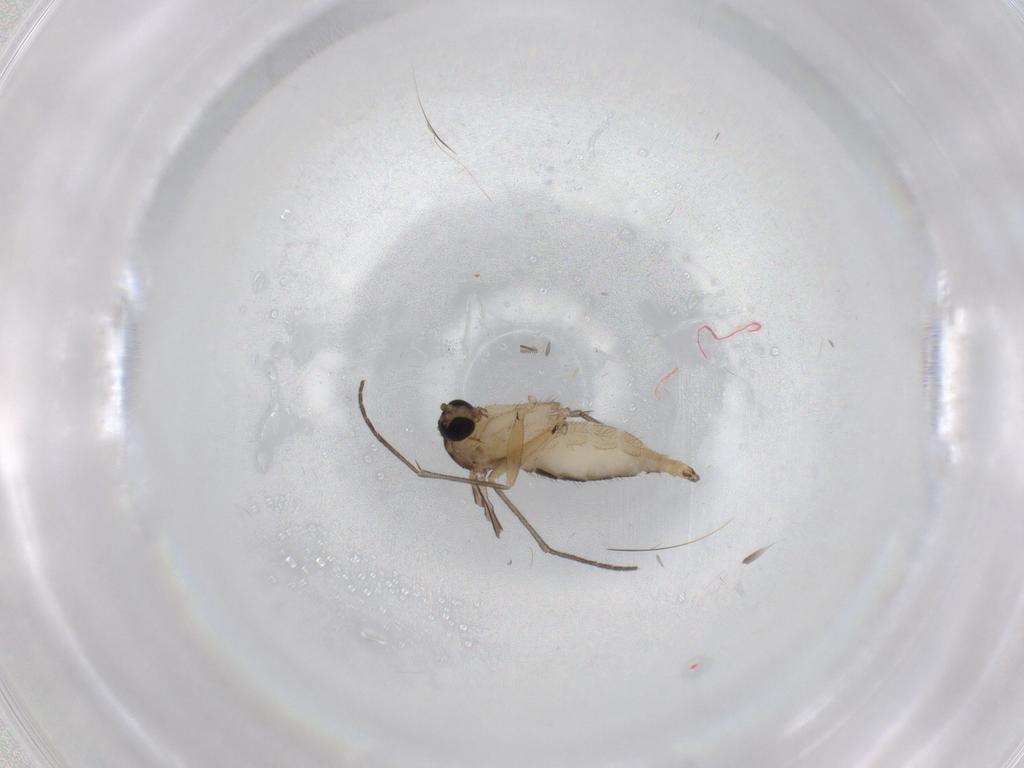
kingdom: Animalia
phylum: Arthropoda
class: Insecta
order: Diptera
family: Sciaridae
